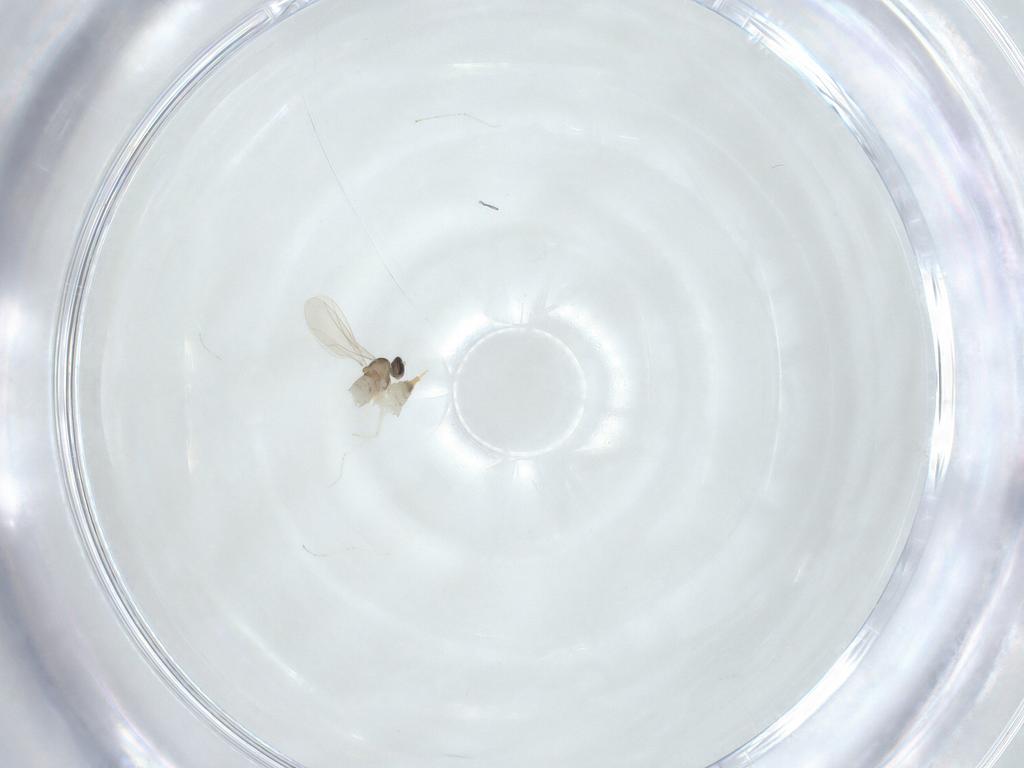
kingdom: Animalia
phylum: Arthropoda
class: Insecta
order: Diptera
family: Cecidomyiidae
